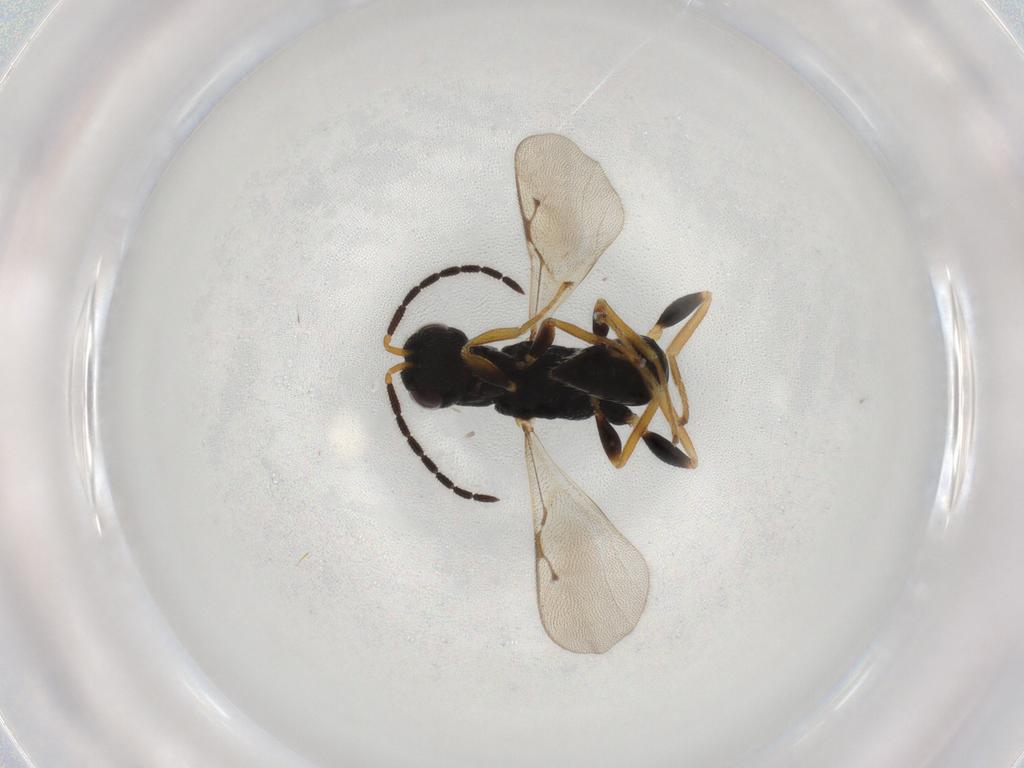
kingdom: Animalia
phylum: Arthropoda
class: Insecta
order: Hymenoptera
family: Eurytomidae
